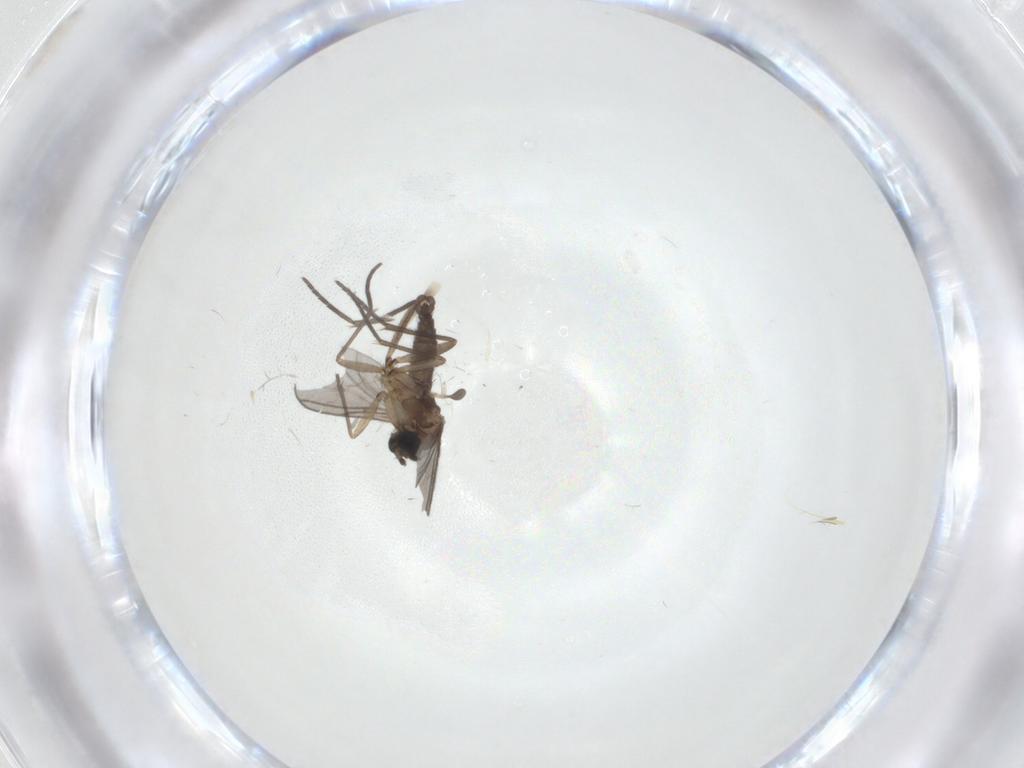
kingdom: Animalia
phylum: Arthropoda
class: Insecta
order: Diptera
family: Sciaridae
